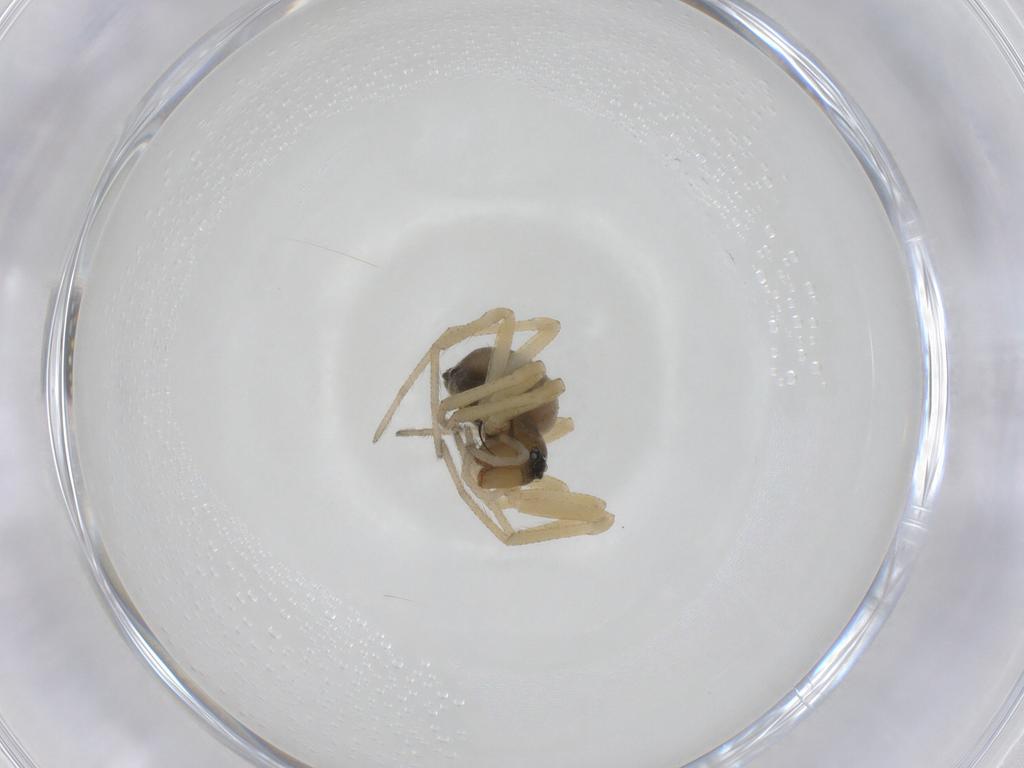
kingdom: Animalia
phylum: Arthropoda
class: Arachnida
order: Araneae
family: Linyphiidae
